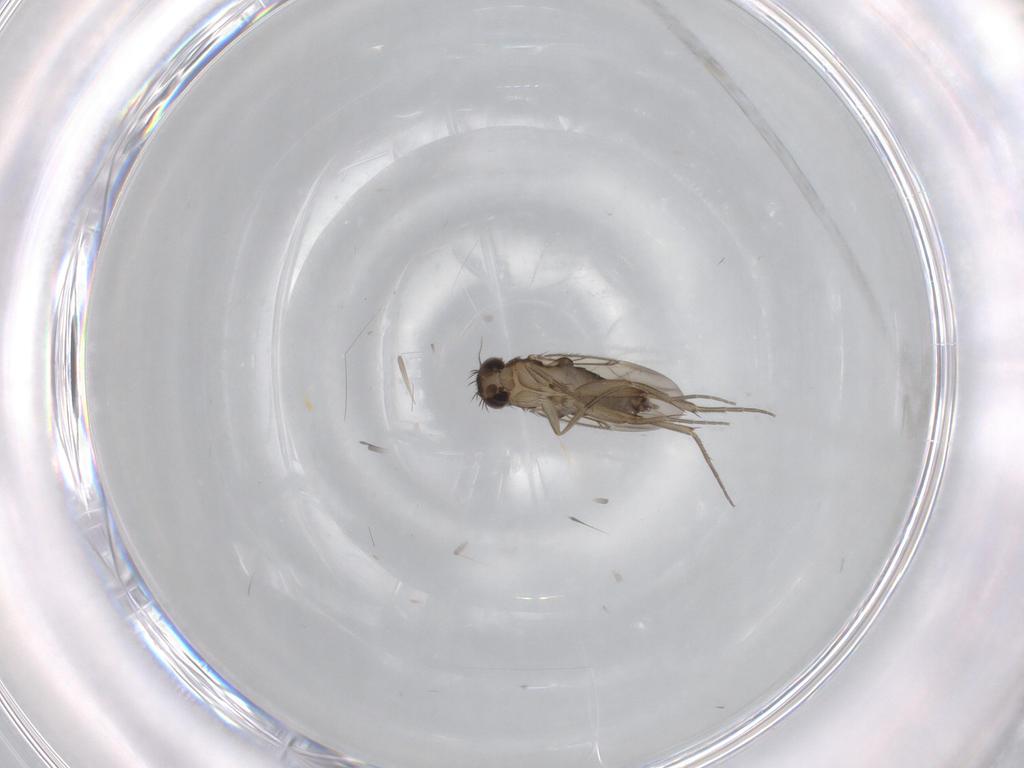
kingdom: Animalia
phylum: Arthropoda
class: Insecta
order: Diptera
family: Phoridae
